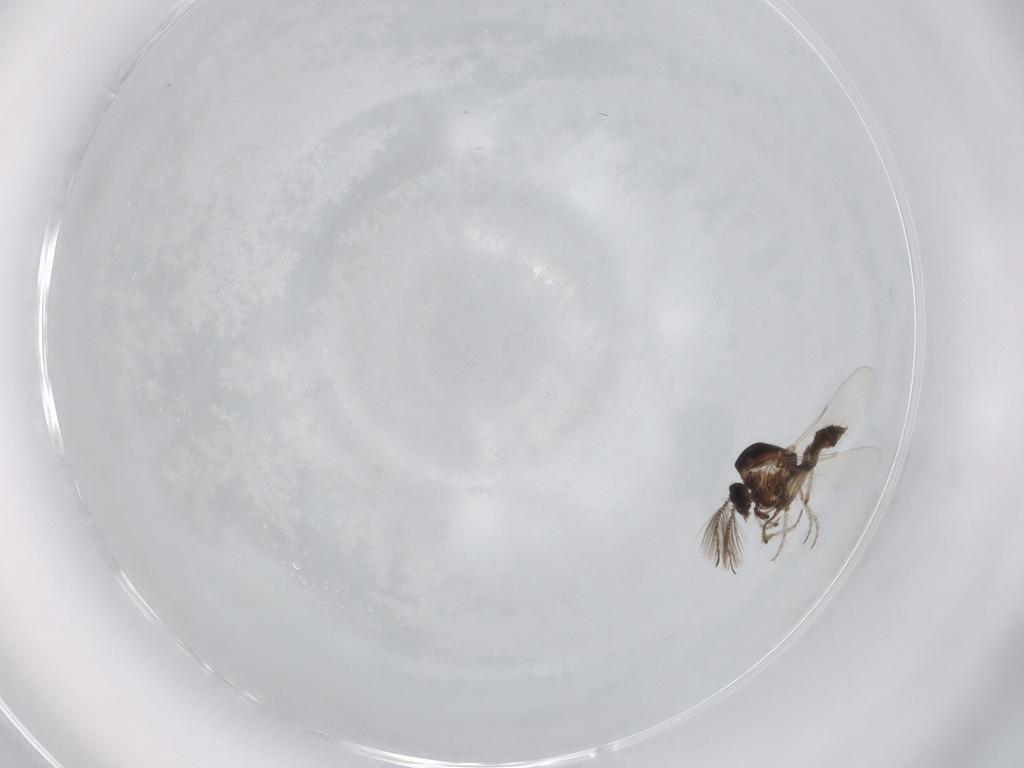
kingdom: Animalia
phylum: Arthropoda
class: Insecta
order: Diptera
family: Ceratopogonidae
